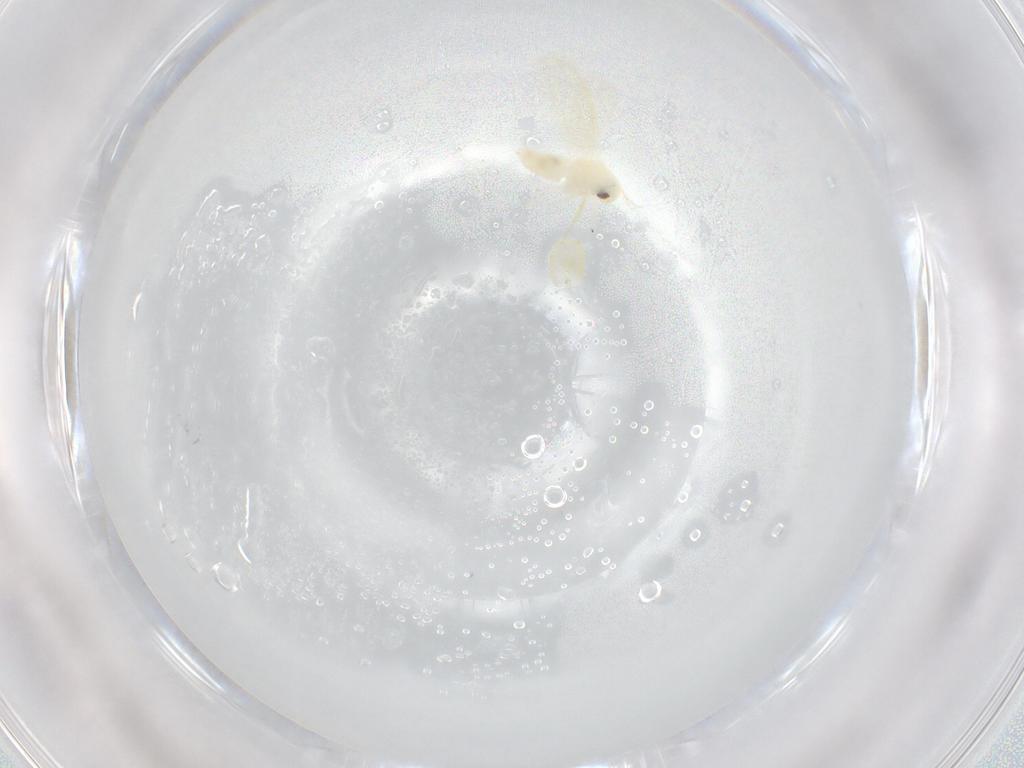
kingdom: Animalia
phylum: Arthropoda
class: Insecta
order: Hemiptera
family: Aleyrodidae
